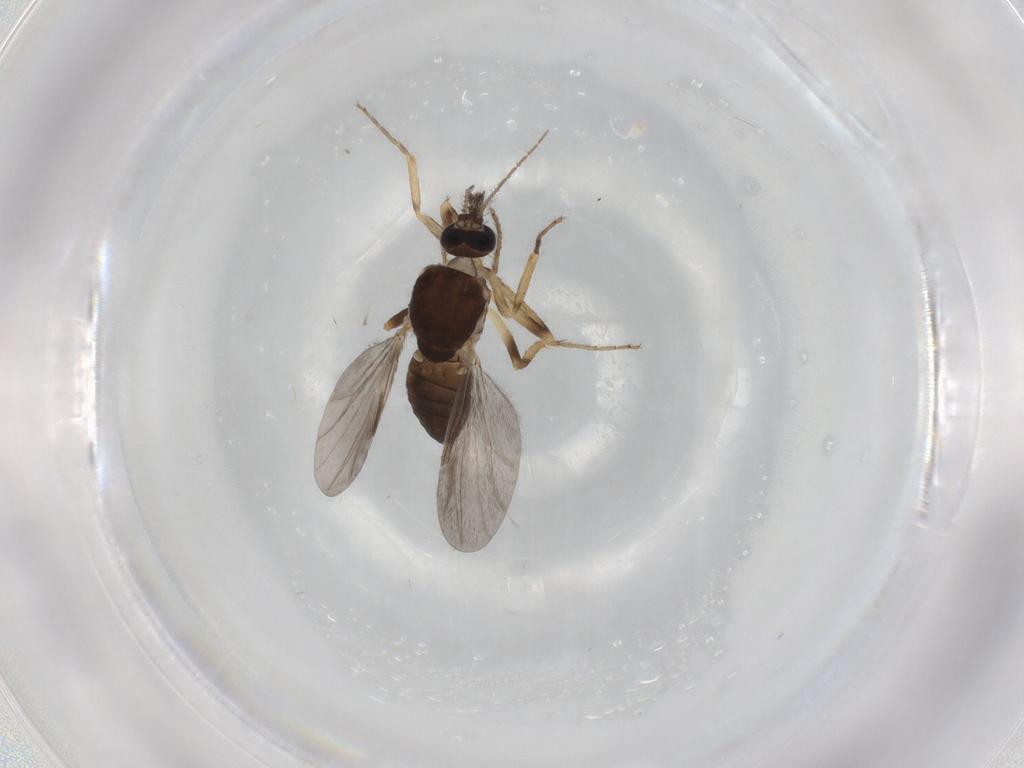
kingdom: Animalia
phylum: Arthropoda
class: Insecta
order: Diptera
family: Ceratopogonidae
